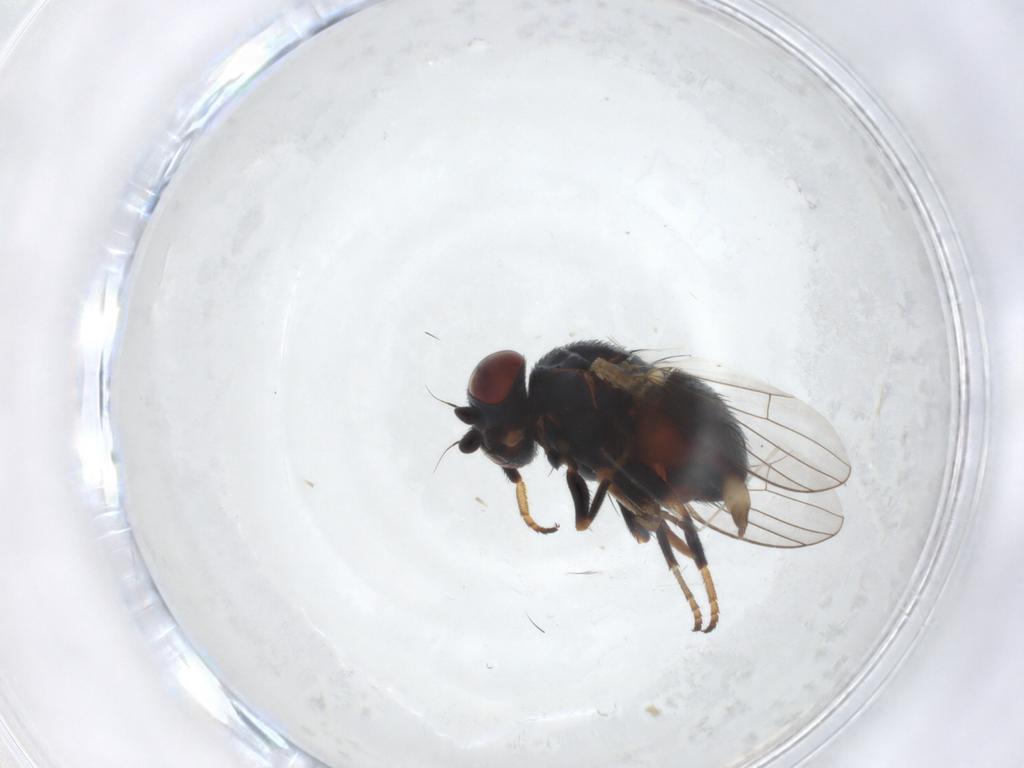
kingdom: Animalia
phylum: Arthropoda
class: Insecta
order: Diptera
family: Chamaemyiidae
